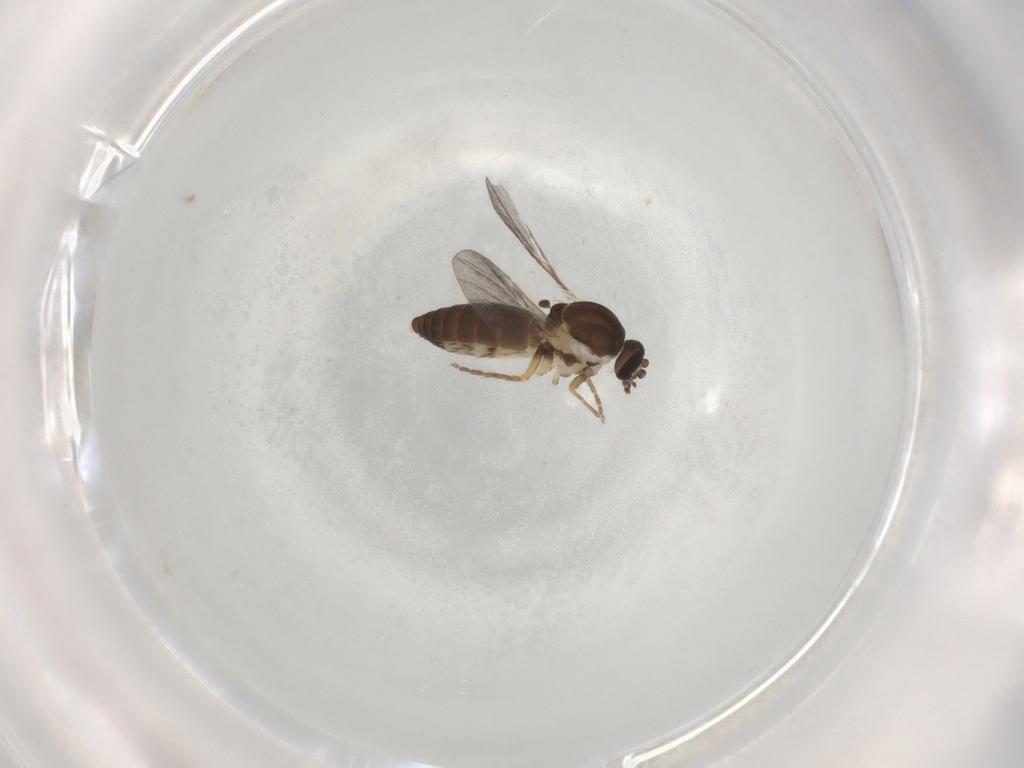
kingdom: Animalia
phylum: Arthropoda
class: Insecta
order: Diptera
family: Ceratopogonidae
